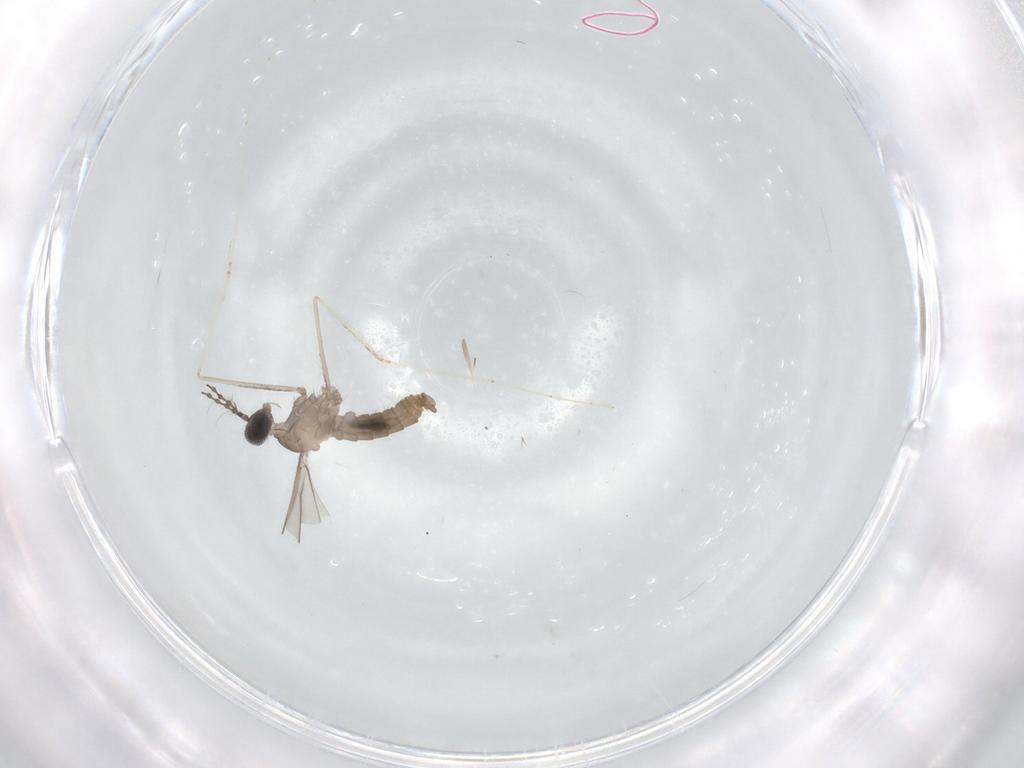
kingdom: Animalia
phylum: Arthropoda
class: Insecta
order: Diptera
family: Cecidomyiidae
